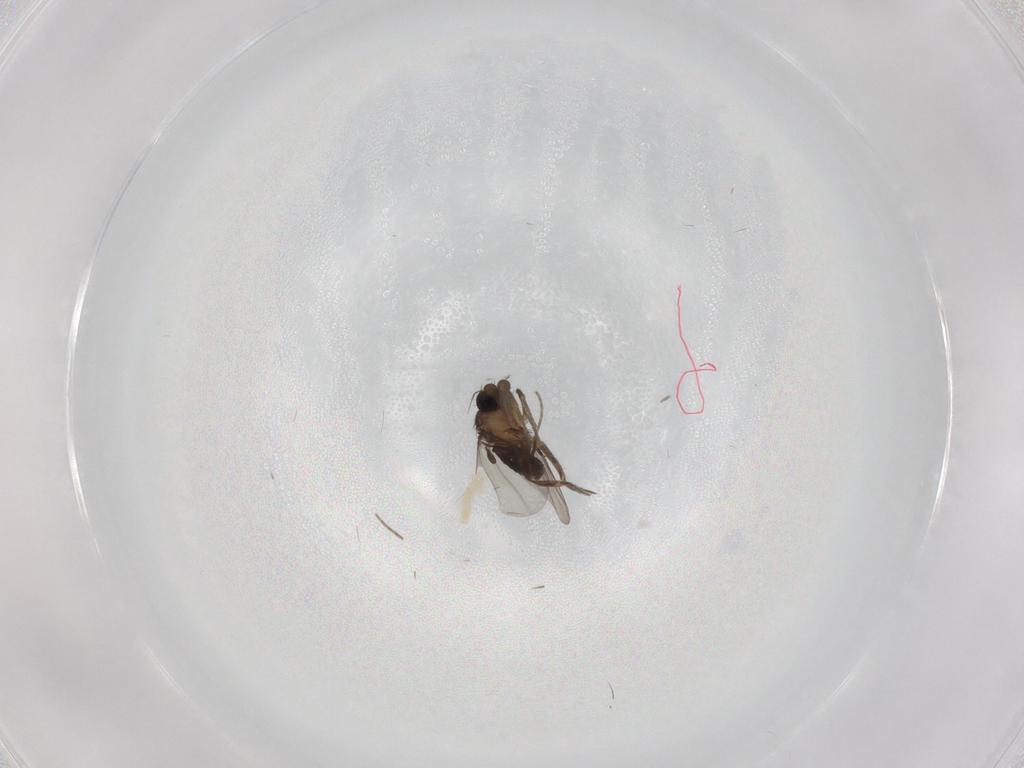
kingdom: Animalia
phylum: Arthropoda
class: Insecta
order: Diptera
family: Phoridae
